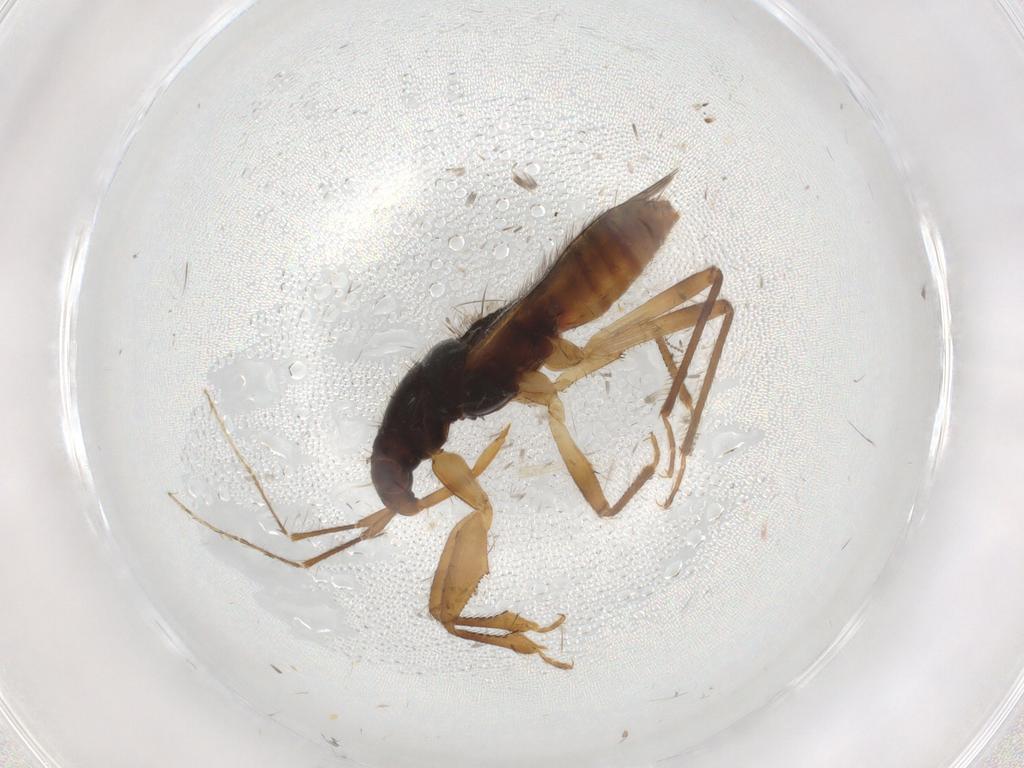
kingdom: Animalia
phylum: Arthropoda
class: Insecta
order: Hemiptera
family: Nabidae
